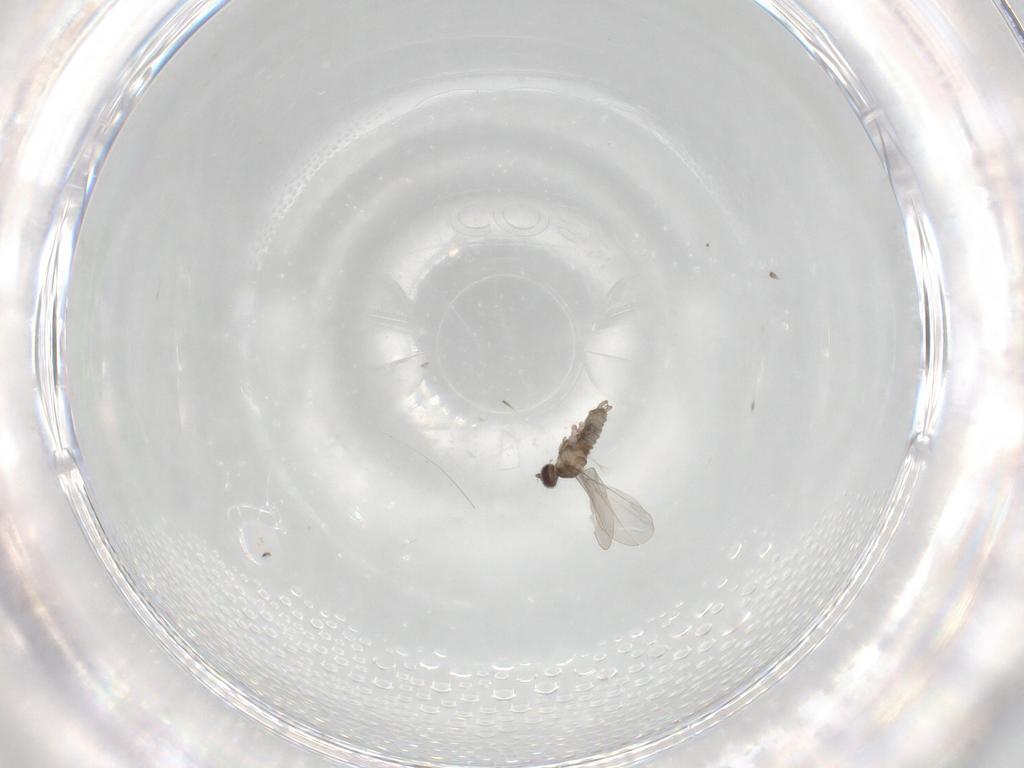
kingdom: Animalia
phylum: Arthropoda
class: Insecta
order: Diptera
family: Cecidomyiidae
